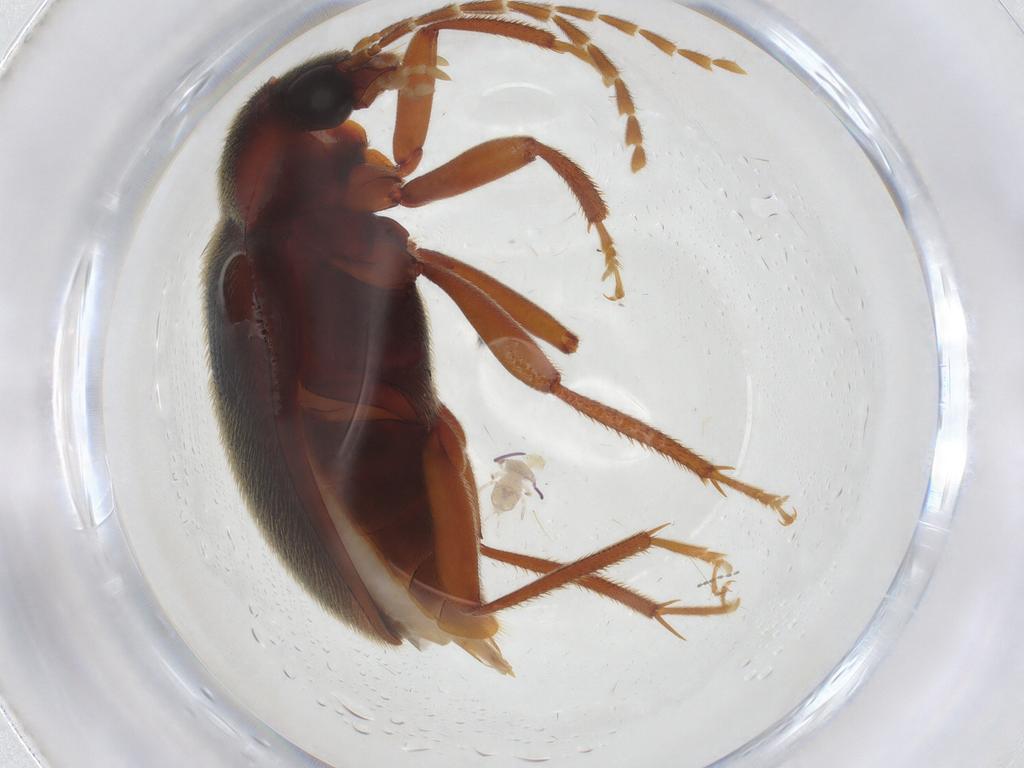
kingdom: Animalia
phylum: Arthropoda
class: Insecta
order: Coleoptera
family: Ptilodactylidae
